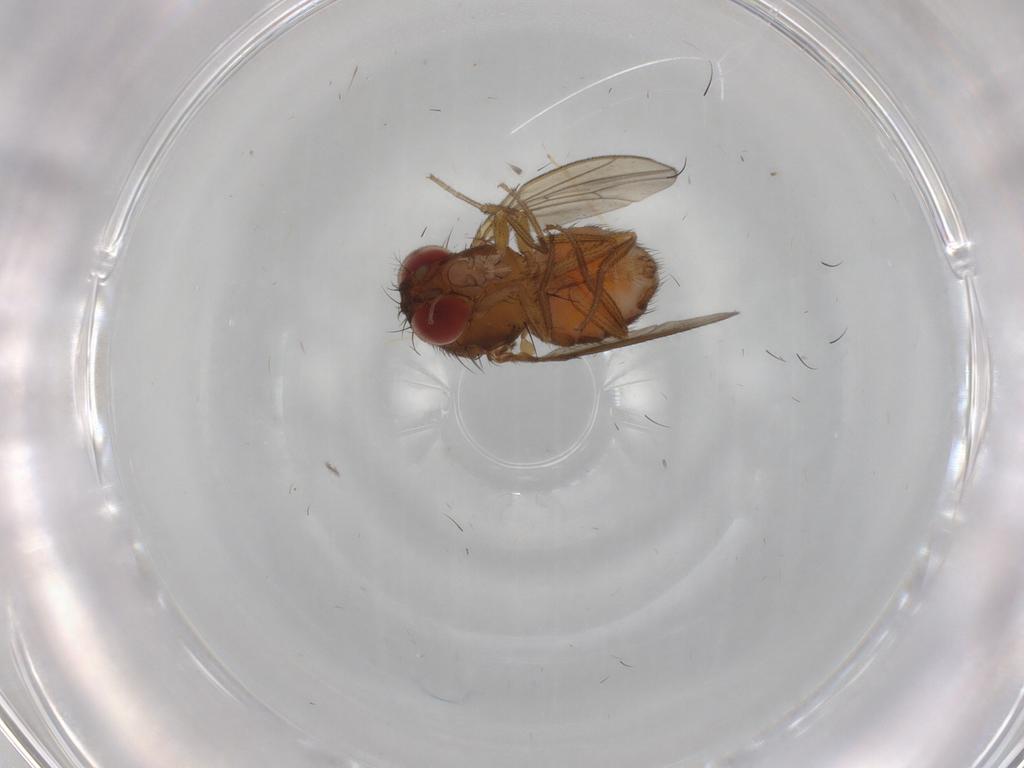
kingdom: Animalia
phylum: Arthropoda
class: Insecta
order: Diptera
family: Drosophilidae
